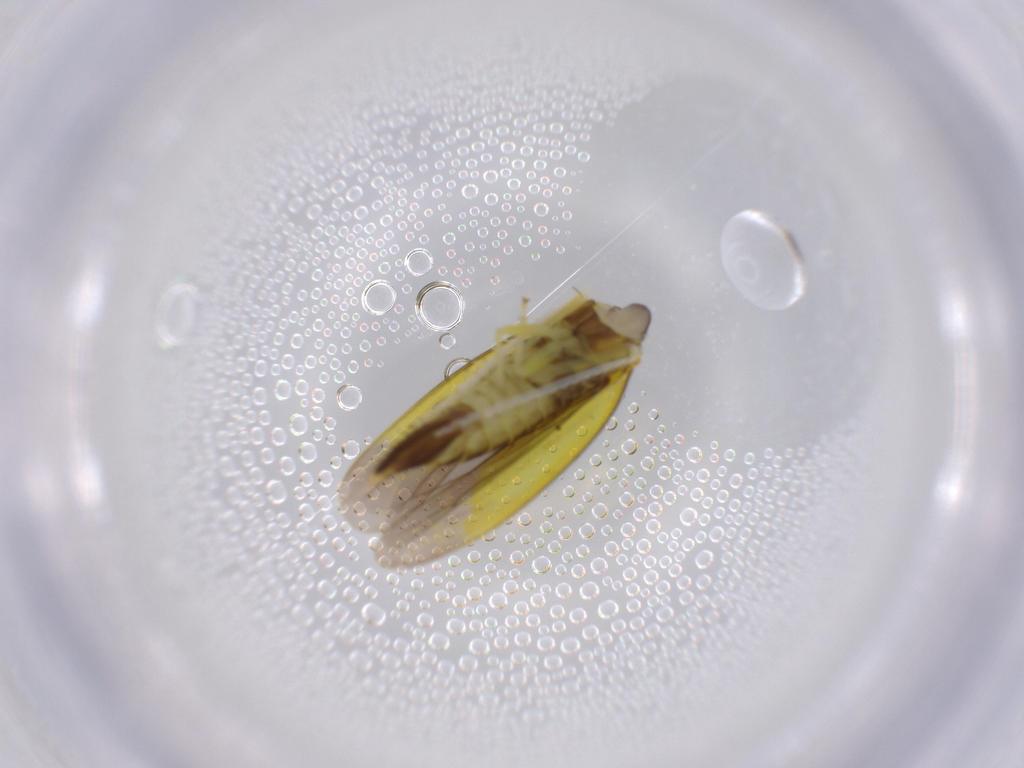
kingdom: Animalia
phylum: Arthropoda
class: Insecta
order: Hemiptera
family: Cicadellidae
